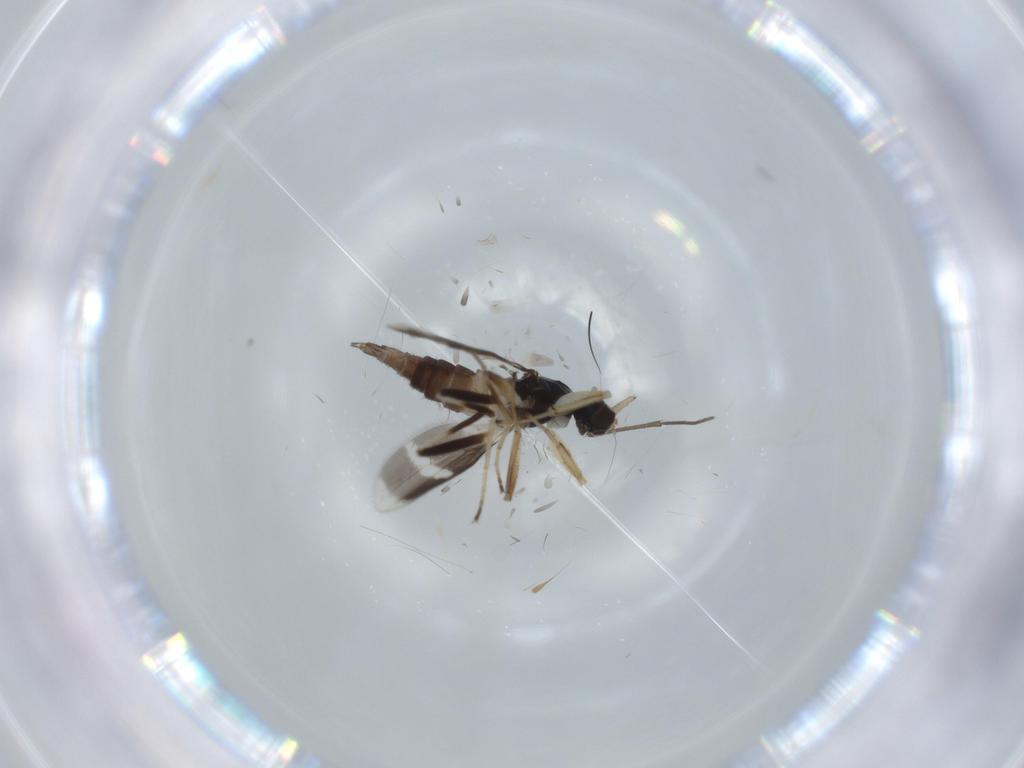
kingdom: Animalia
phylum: Arthropoda
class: Insecta
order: Diptera
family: Hybotidae
